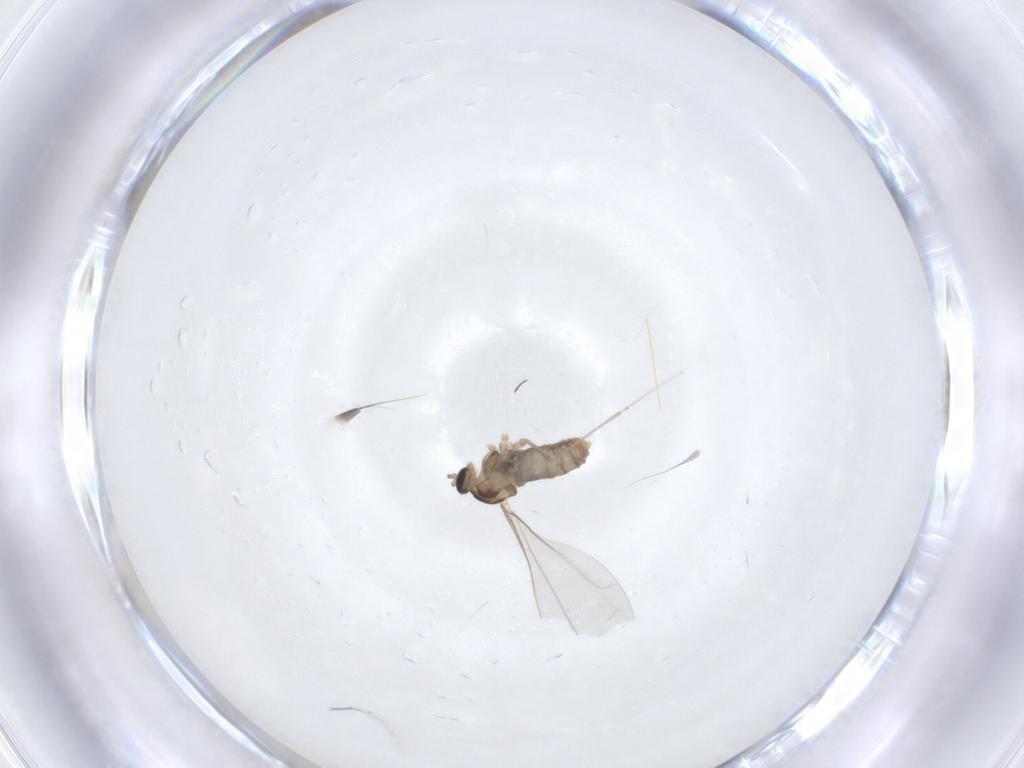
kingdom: Animalia
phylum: Arthropoda
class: Insecta
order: Diptera
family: Cecidomyiidae
